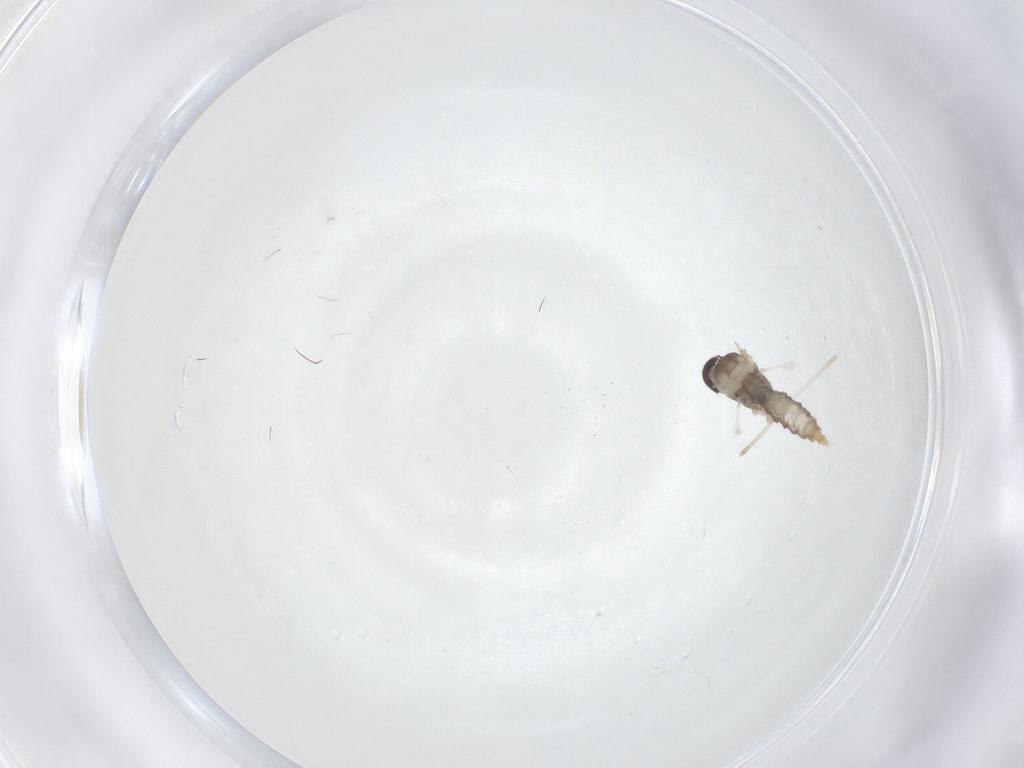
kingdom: Animalia
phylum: Arthropoda
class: Insecta
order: Diptera
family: Cecidomyiidae
